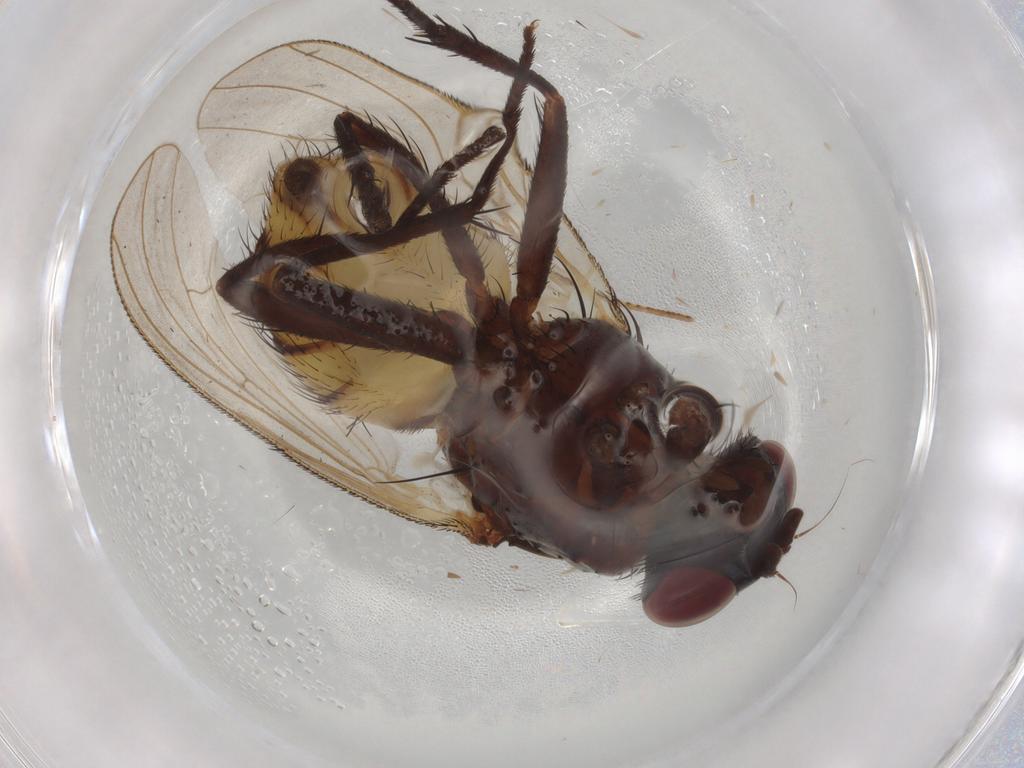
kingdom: Animalia
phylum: Arthropoda
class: Insecta
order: Diptera
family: Anthomyiidae
